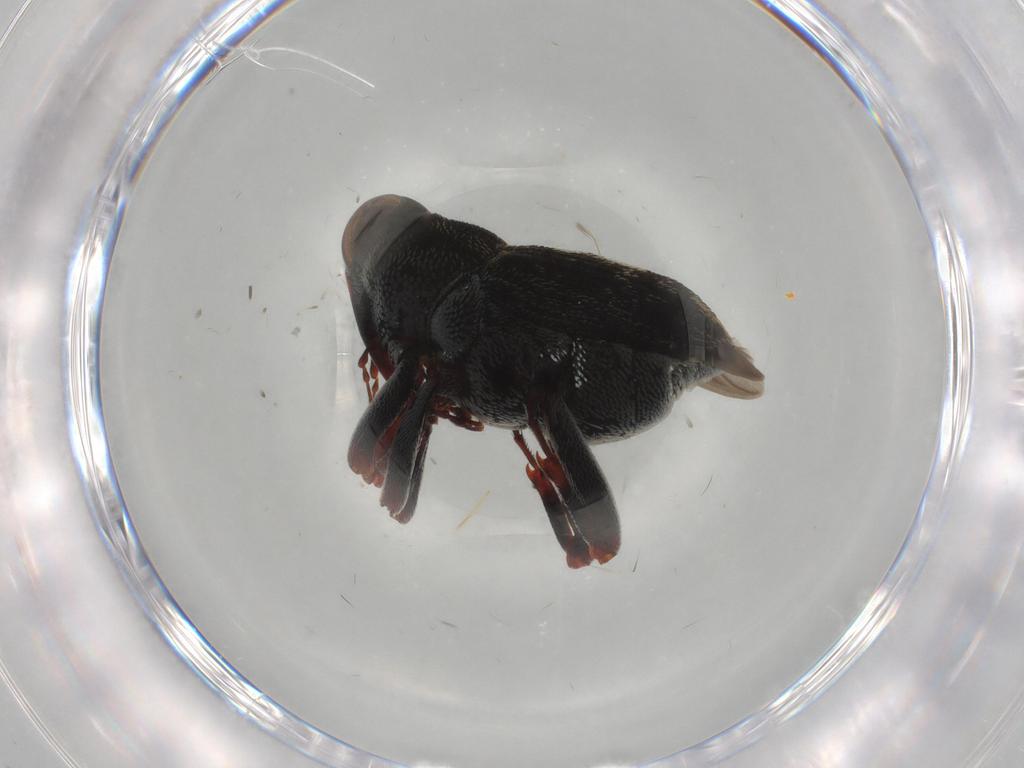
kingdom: Animalia
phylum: Arthropoda
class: Insecta
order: Coleoptera
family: Curculionidae
